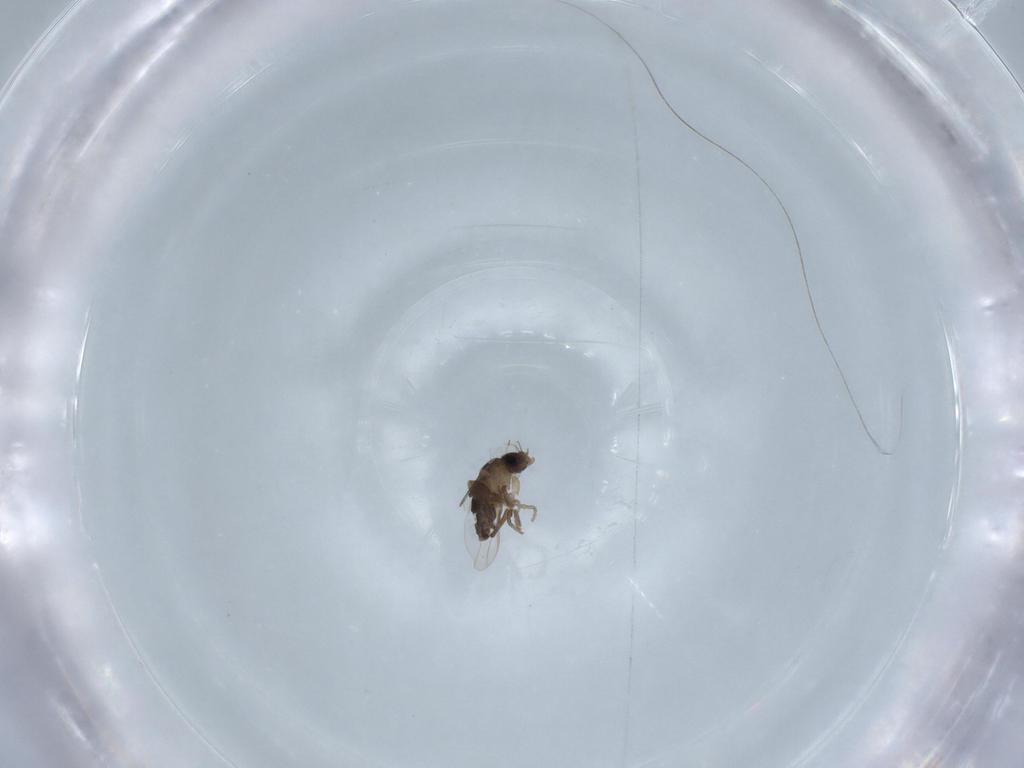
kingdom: Animalia
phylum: Arthropoda
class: Insecta
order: Diptera
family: Phoridae
